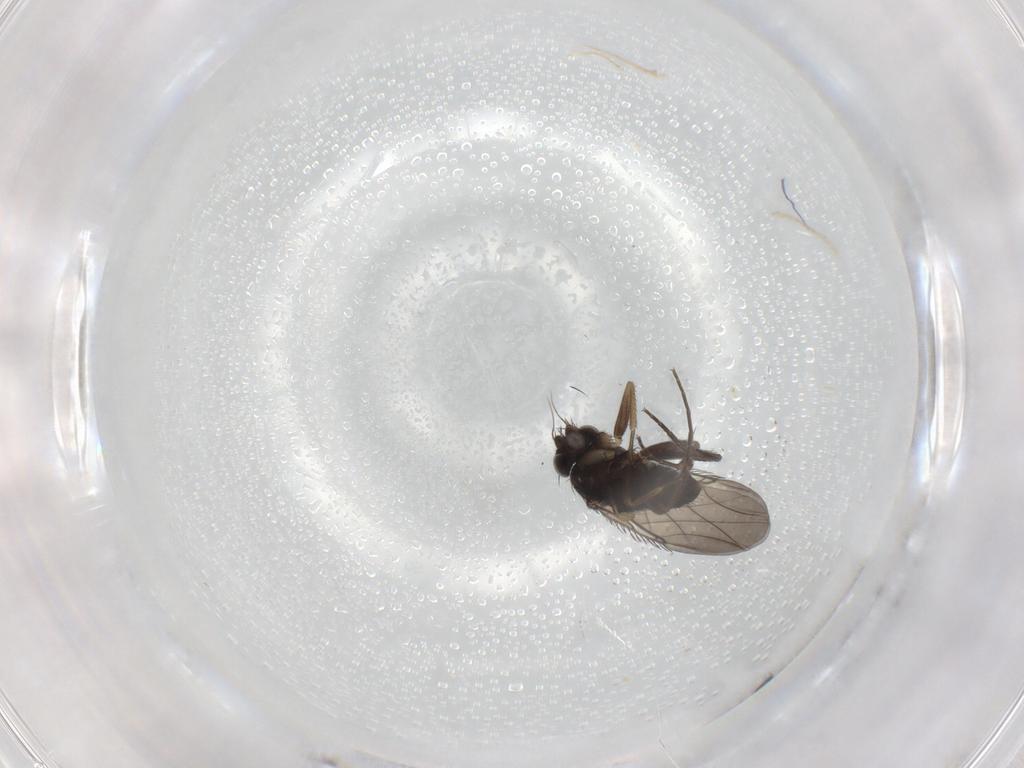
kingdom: Animalia
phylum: Arthropoda
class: Insecta
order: Diptera
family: Phoridae
